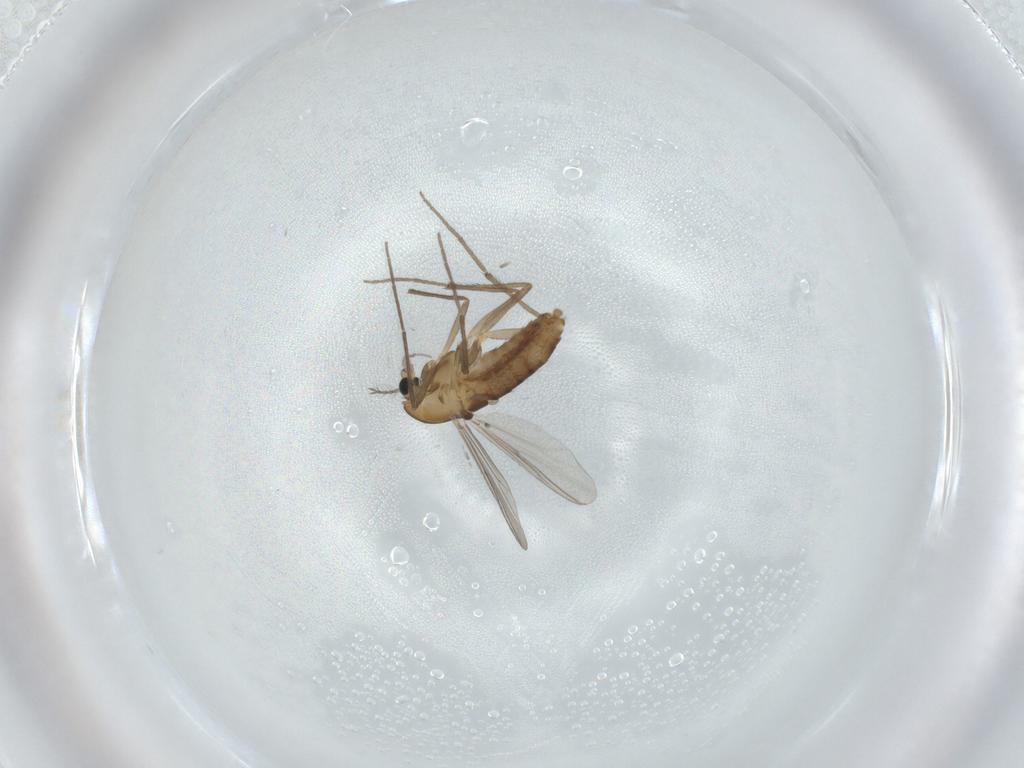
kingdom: Animalia
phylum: Arthropoda
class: Insecta
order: Diptera
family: Chironomidae
